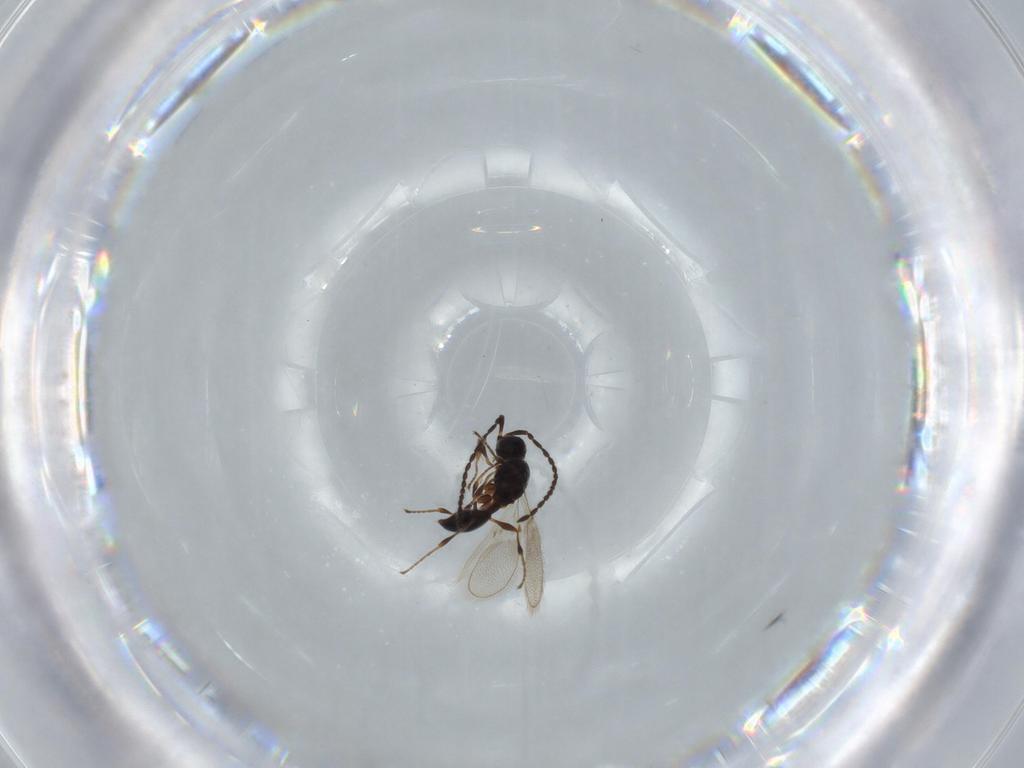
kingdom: Animalia
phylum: Arthropoda
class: Insecta
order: Hymenoptera
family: Diapriidae
